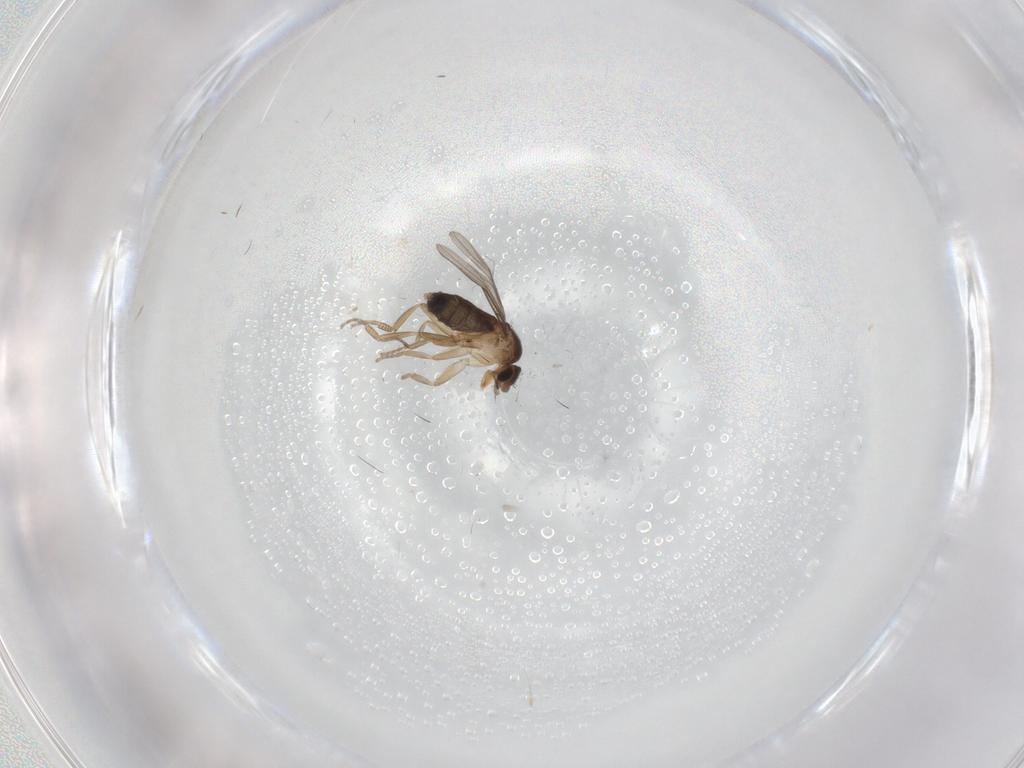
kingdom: Animalia
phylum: Arthropoda
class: Insecta
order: Diptera
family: Phoridae
